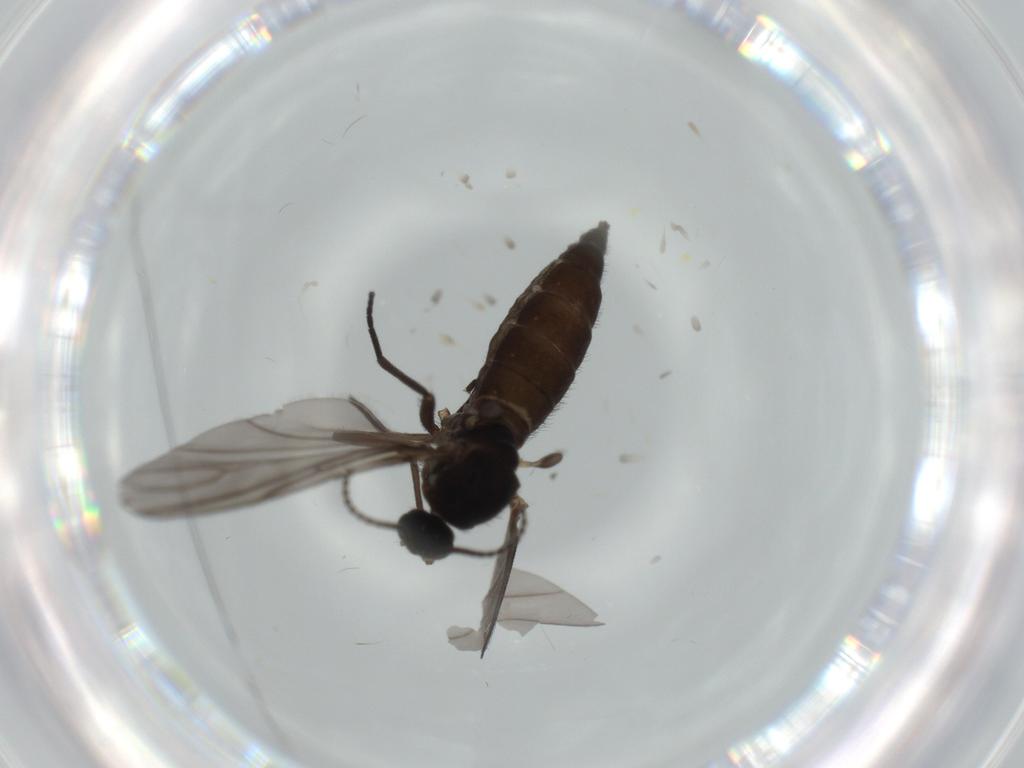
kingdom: Animalia
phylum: Arthropoda
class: Insecta
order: Diptera
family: Sciaridae
